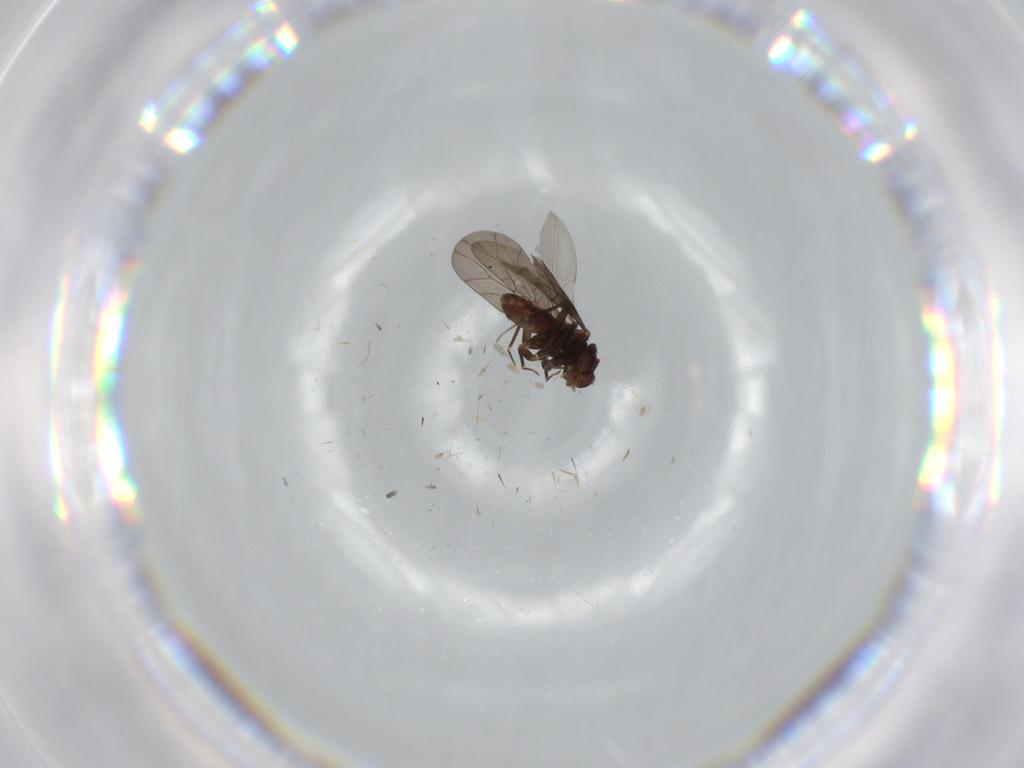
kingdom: Animalia
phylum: Arthropoda
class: Insecta
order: Psocodea
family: Lepidopsocidae
